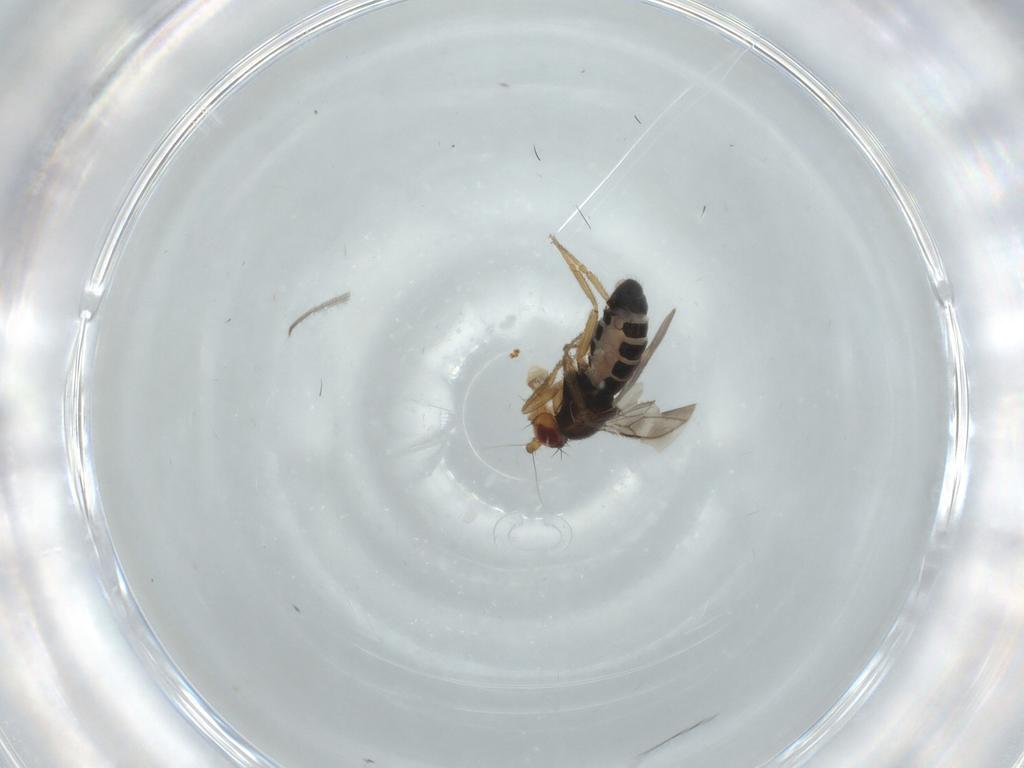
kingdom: Animalia
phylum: Arthropoda
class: Insecta
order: Diptera
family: Sphaeroceridae
